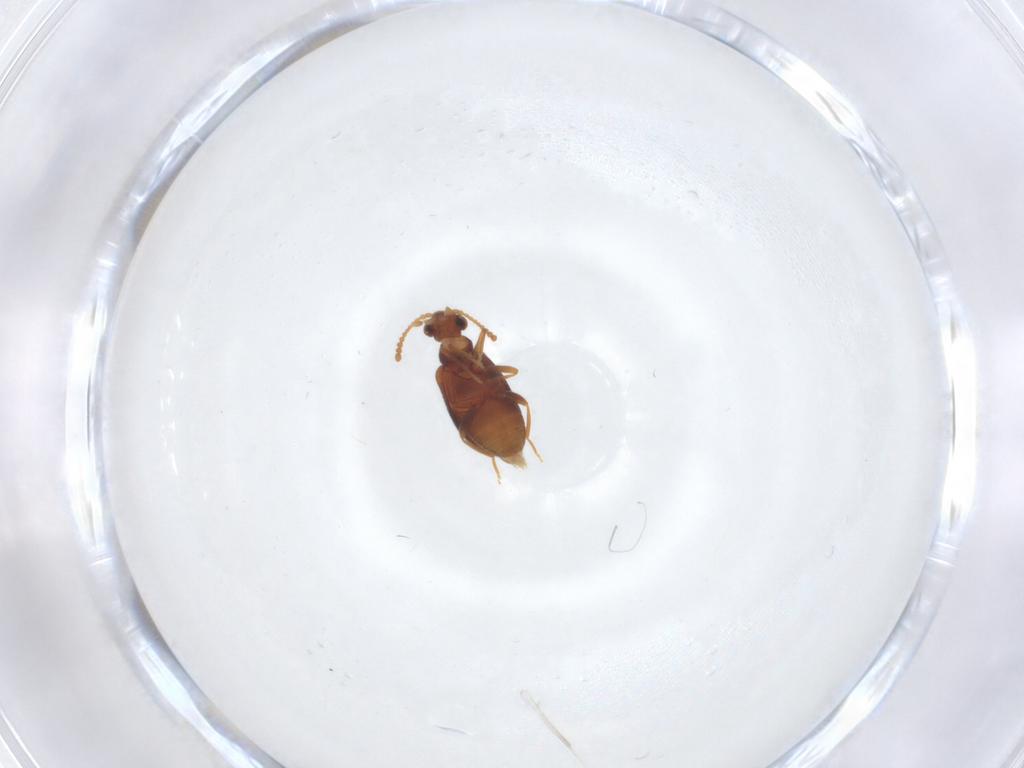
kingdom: Animalia
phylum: Arthropoda
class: Insecta
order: Coleoptera
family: Aderidae
